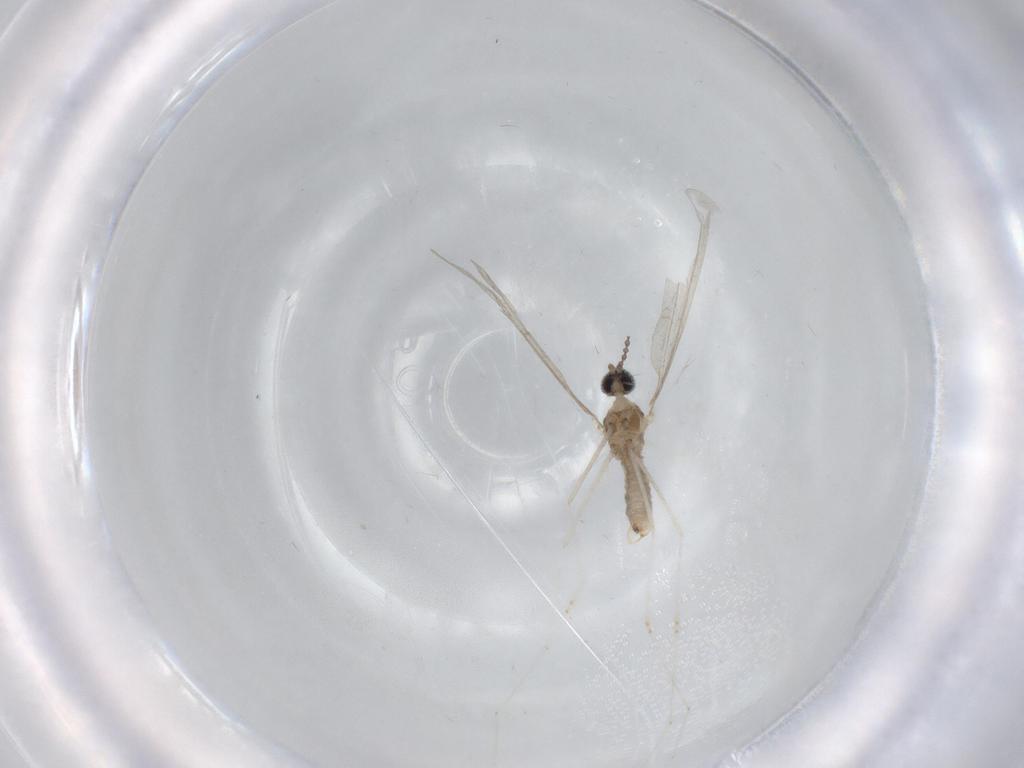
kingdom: Animalia
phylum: Arthropoda
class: Insecta
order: Diptera
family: Cecidomyiidae
